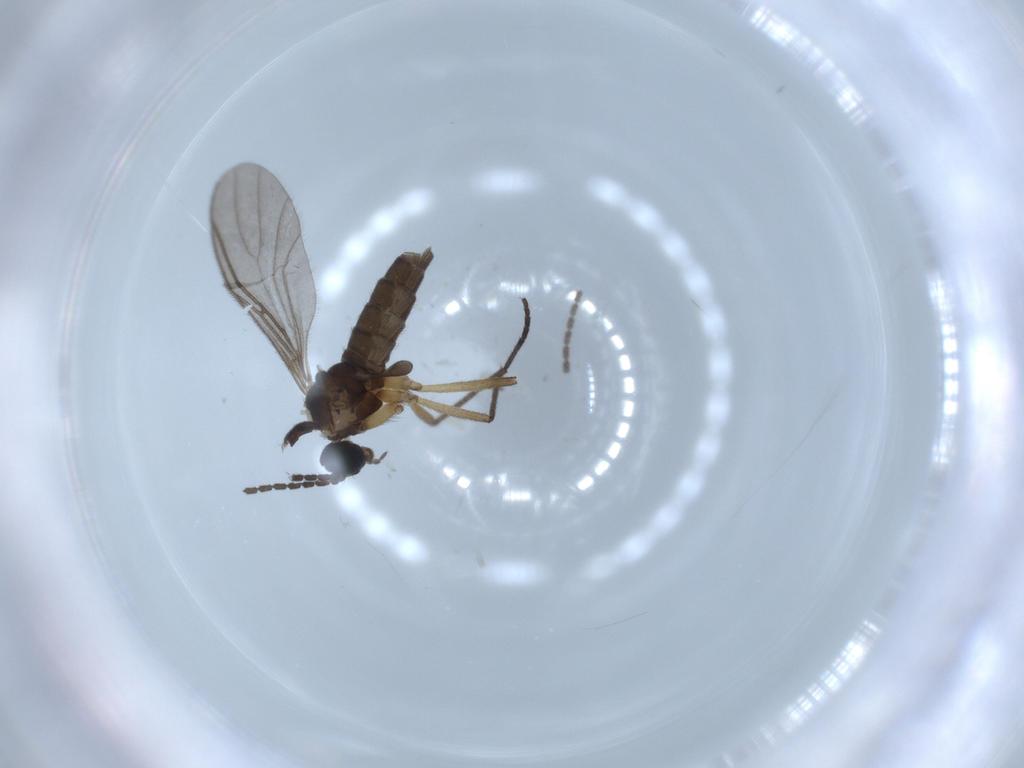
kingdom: Animalia
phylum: Arthropoda
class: Insecta
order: Diptera
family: Sciaridae
